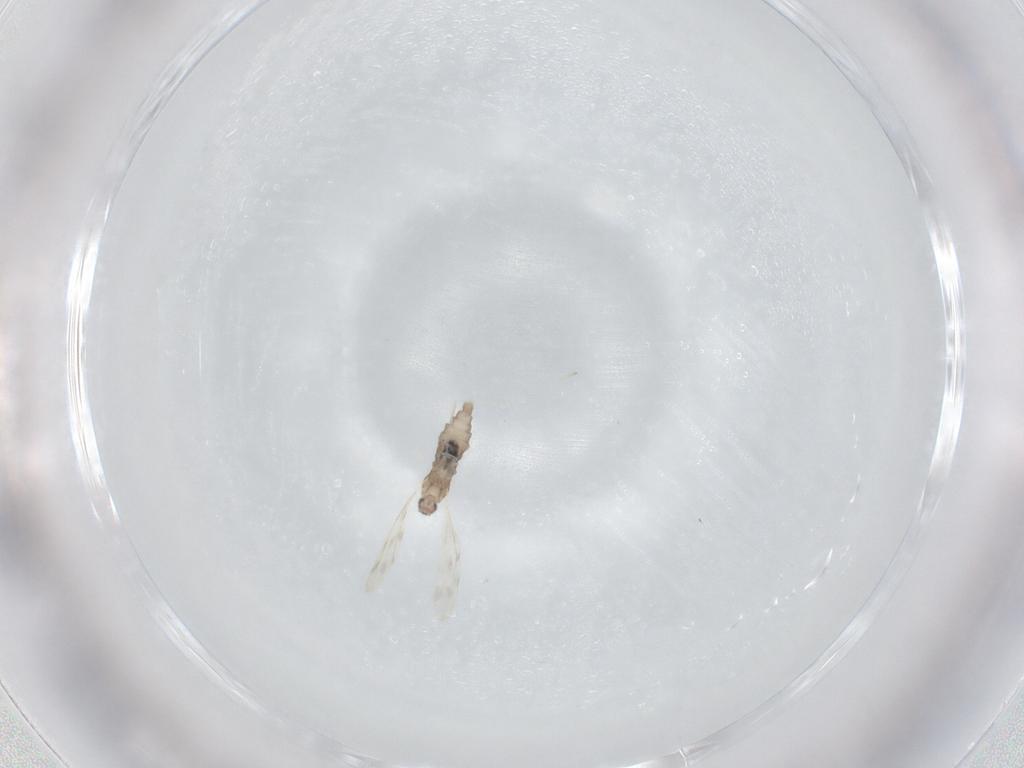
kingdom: Animalia
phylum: Arthropoda
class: Insecta
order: Diptera
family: Cecidomyiidae
